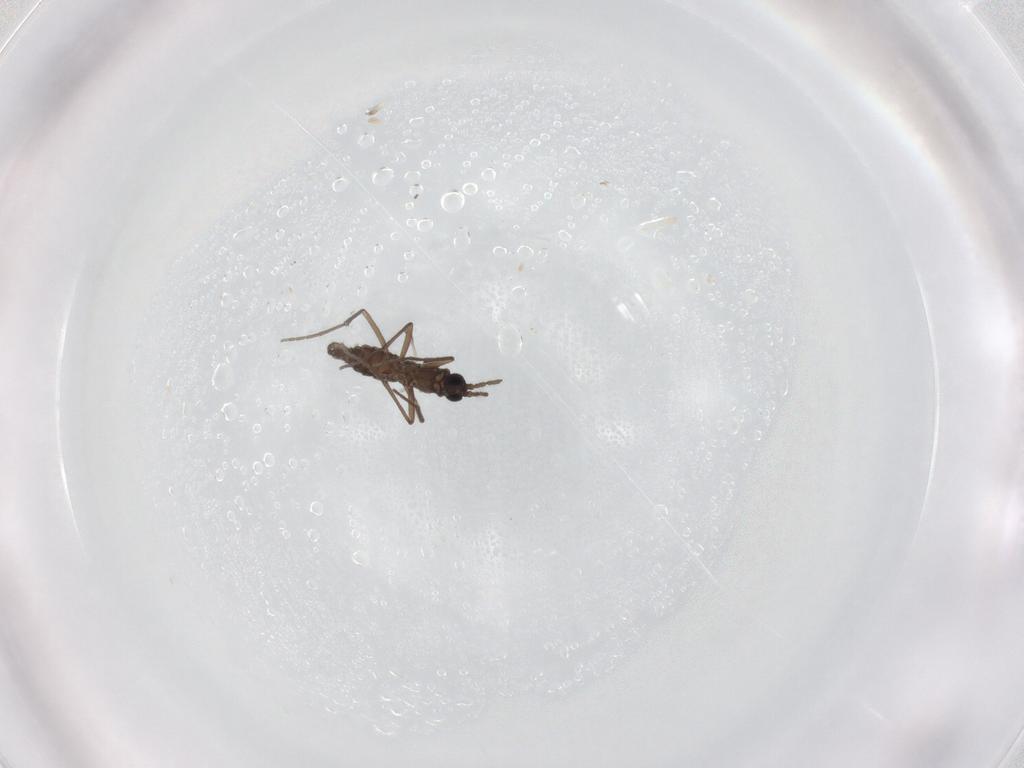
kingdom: Animalia
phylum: Arthropoda
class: Insecta
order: Diptera
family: Sciaridae
